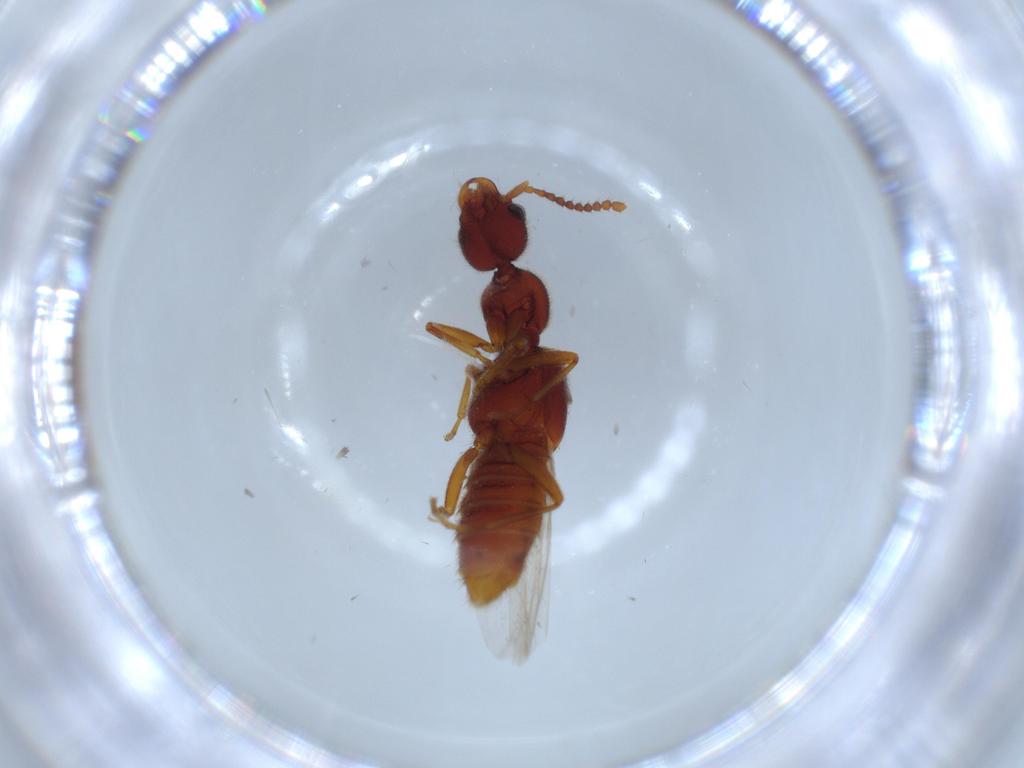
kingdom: Animalia
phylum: Arthropoda
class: Insecta
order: Coleoptera
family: Curculionidae
